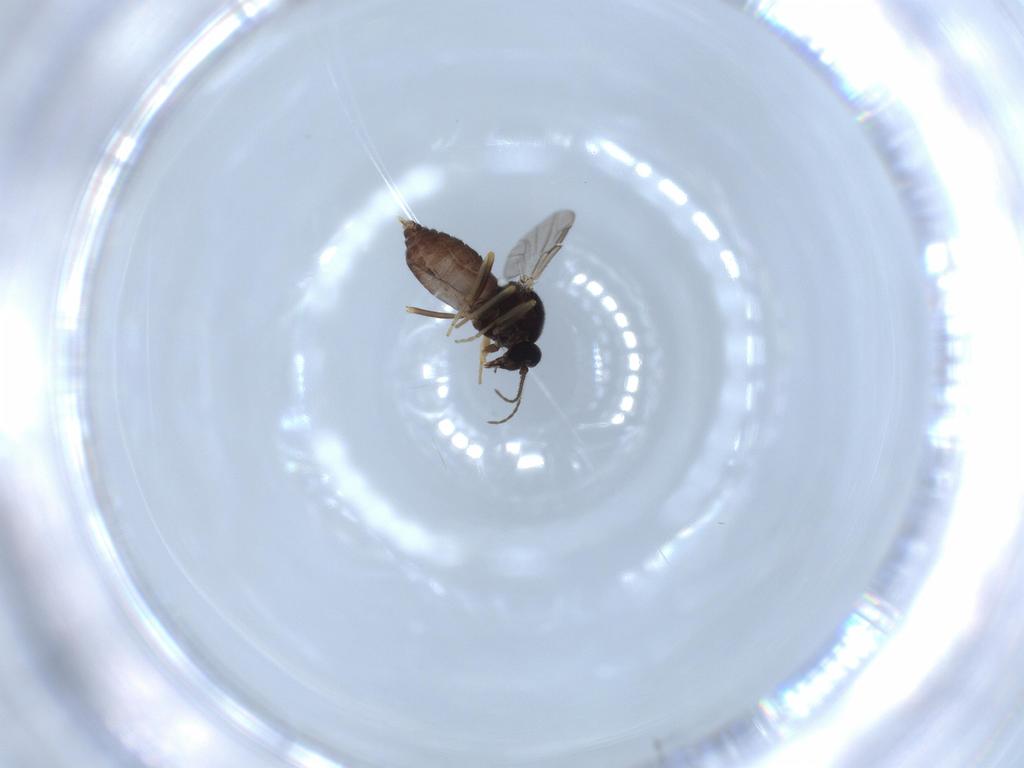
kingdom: Animalia
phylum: Arthropoda
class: Insecta
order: Diptera
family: Ceratopogonidae
